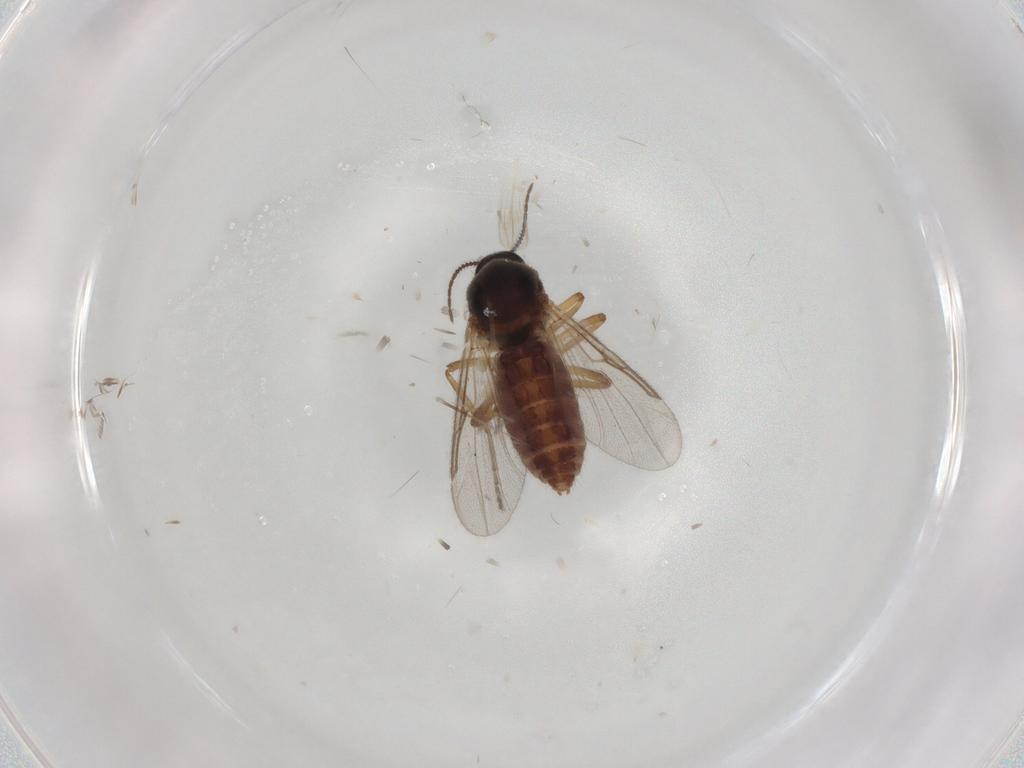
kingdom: Animalia
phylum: Arthropoda
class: Insecta
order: Diptera
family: Ceratopogonidae
